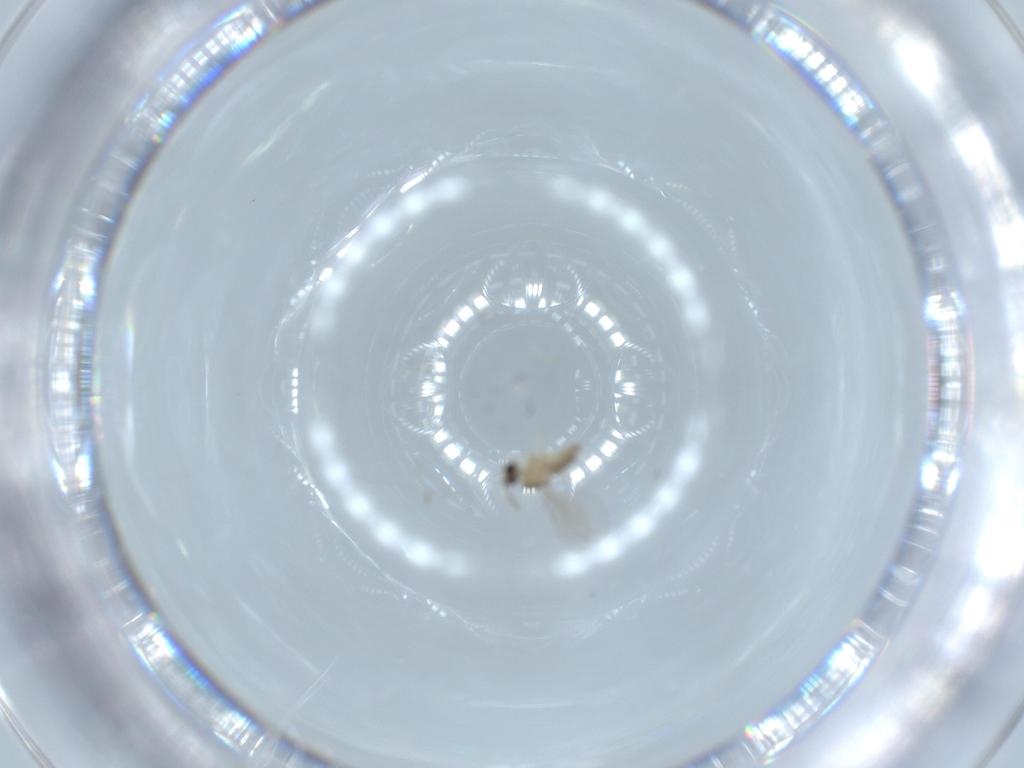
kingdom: Animalia
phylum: Arthropoda
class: Insecta
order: Diptera
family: Cecidomyiidae
